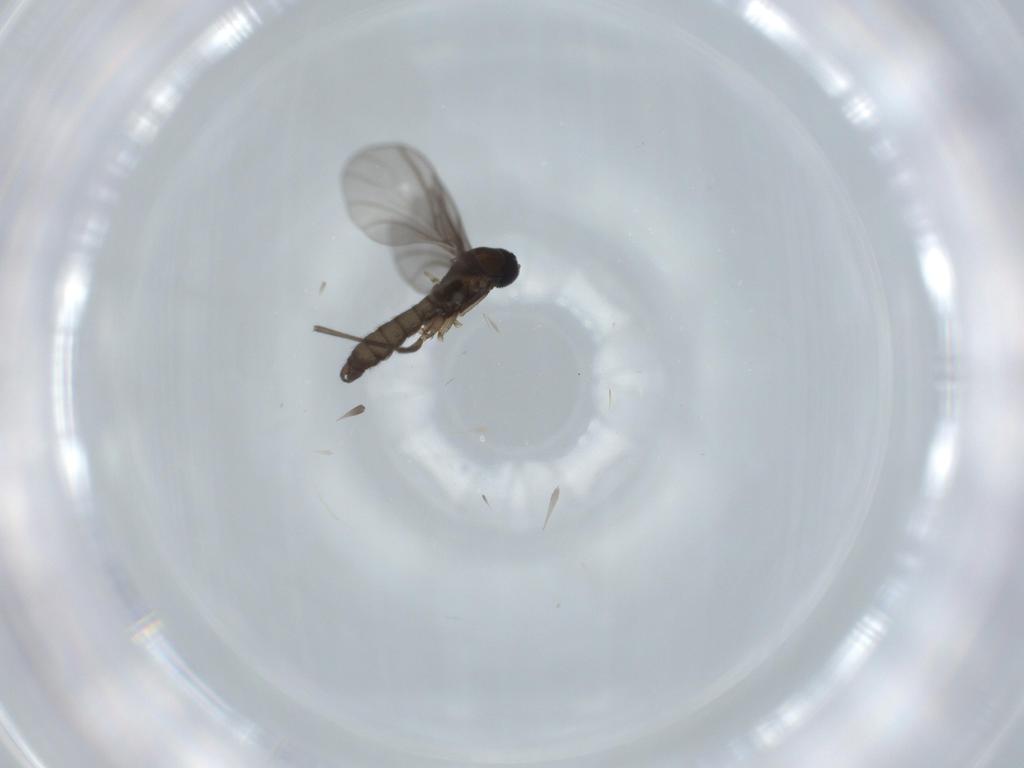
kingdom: Animalia
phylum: Arthropoda
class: Insecta
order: Diptera
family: Sciaridae
